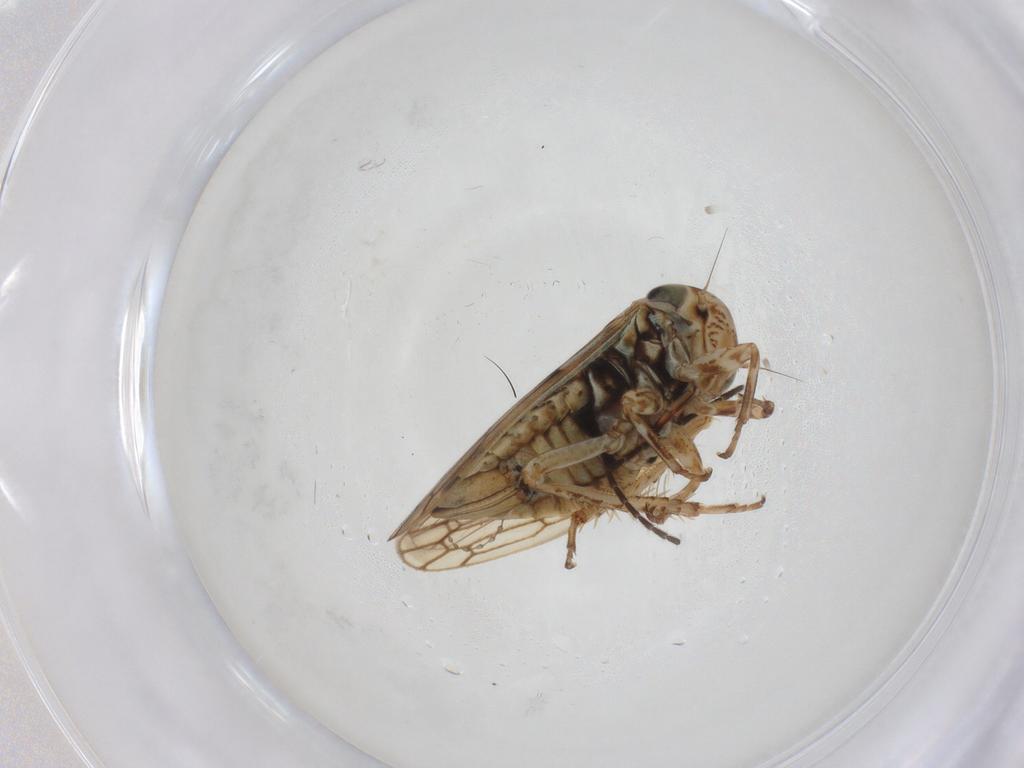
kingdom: Animalia
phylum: Arthropoda
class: Insecta
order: Hemiptera
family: Cicadellidae
